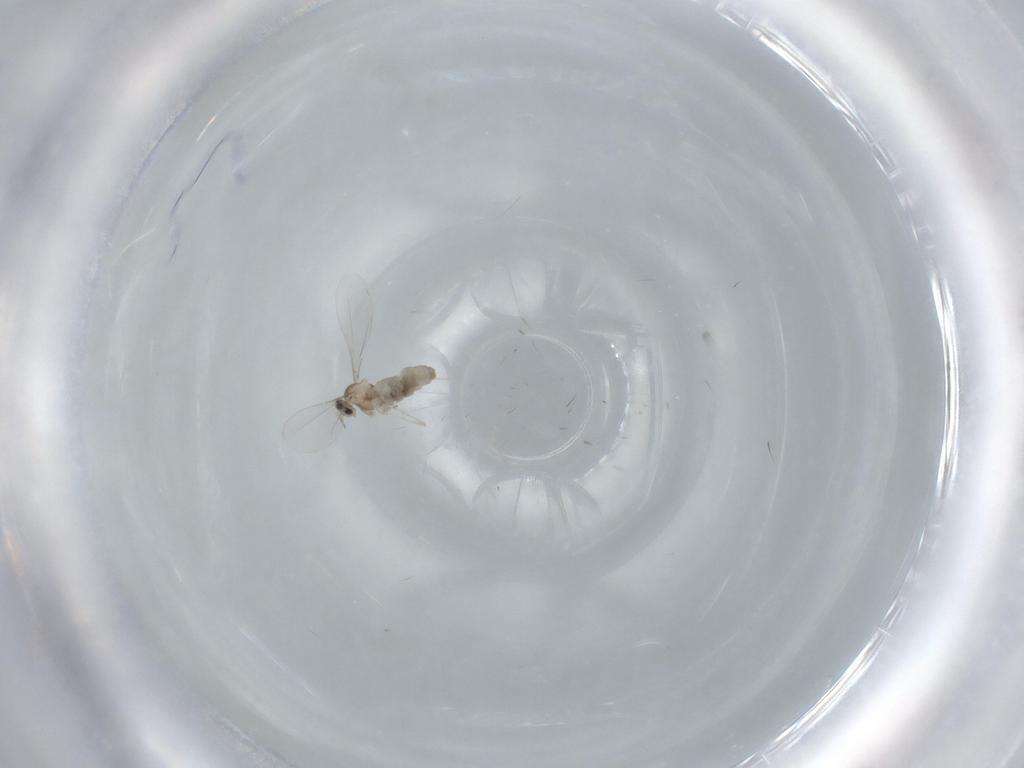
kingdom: Animalia
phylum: Arthropoda
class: Insecta
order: Diptera
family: Cecidomyiidae
